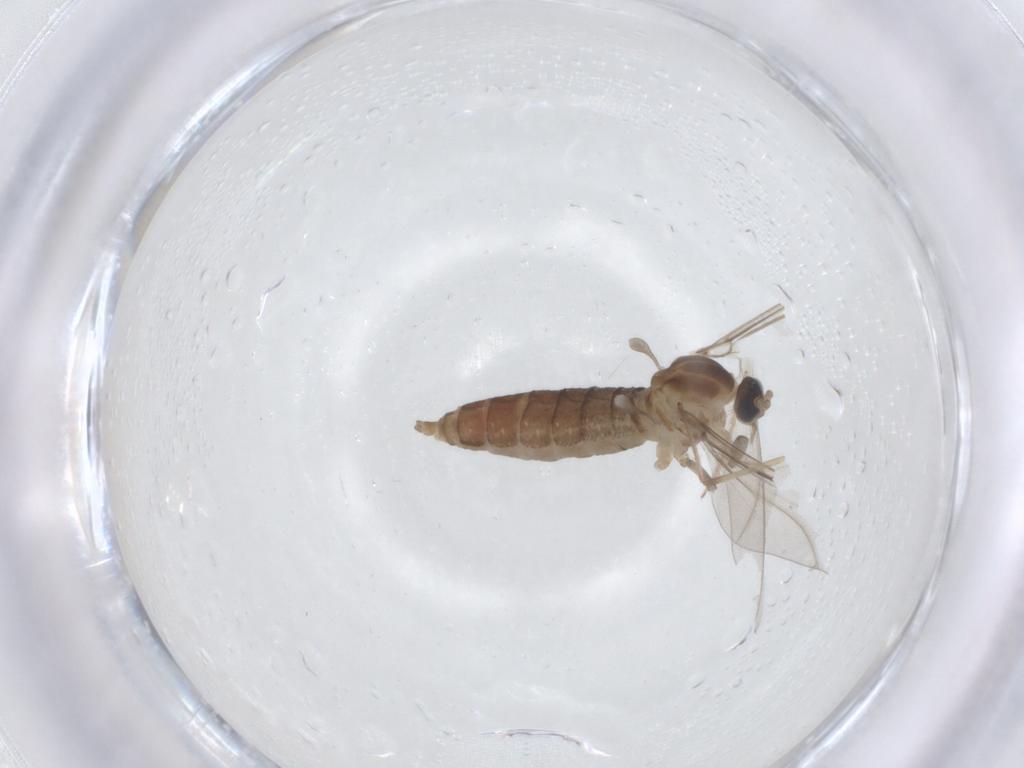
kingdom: Animalia
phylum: Arthropoda
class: Insecta
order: Diptera
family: Cecidomyiidae
